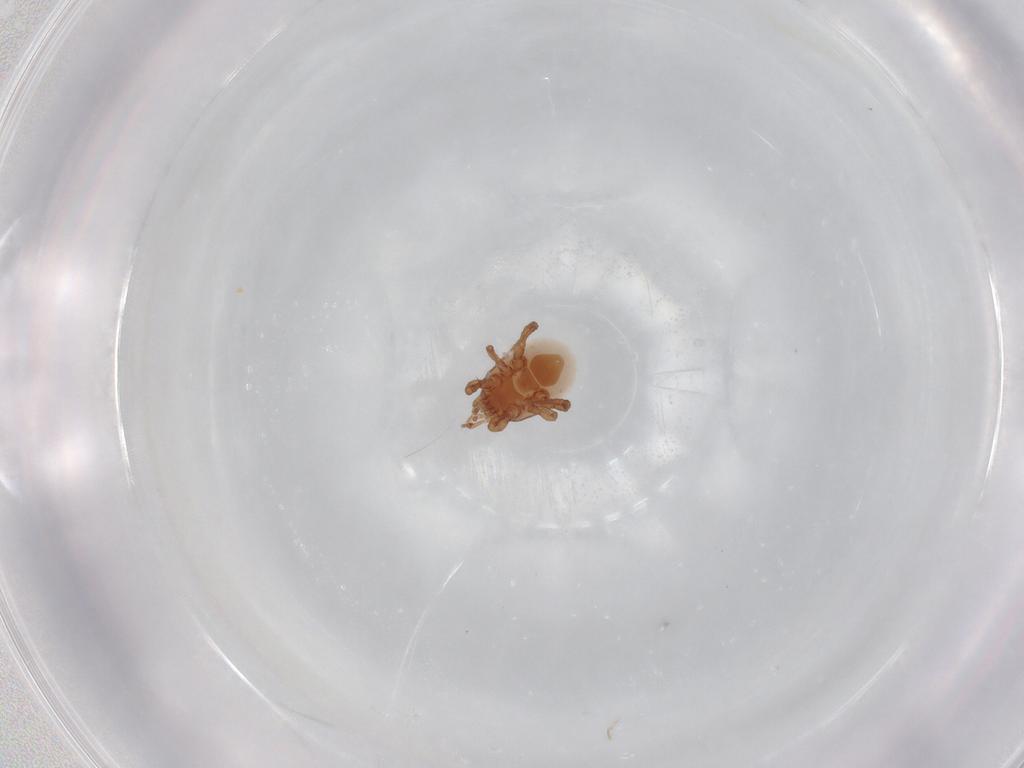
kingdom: Animalia
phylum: Arthropoda
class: Arachnida
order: Mesostigmata
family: Macrochelidae
